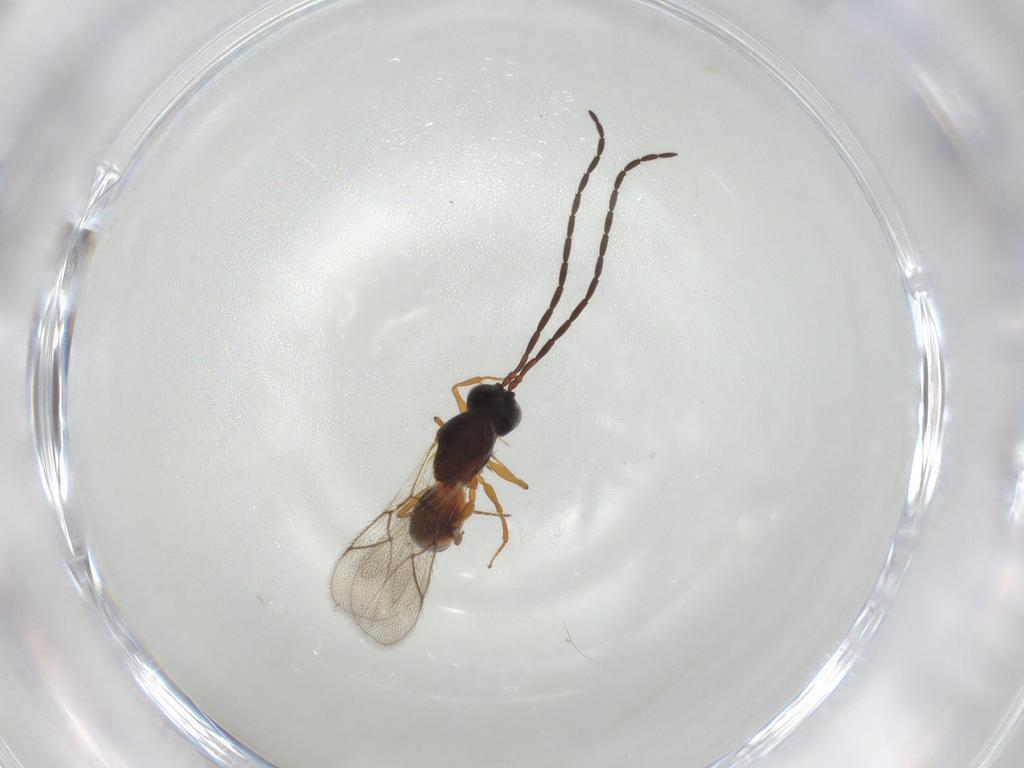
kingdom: Animalia
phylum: Arthropoda
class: Insecta
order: Hymenoptera
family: Figitidae
